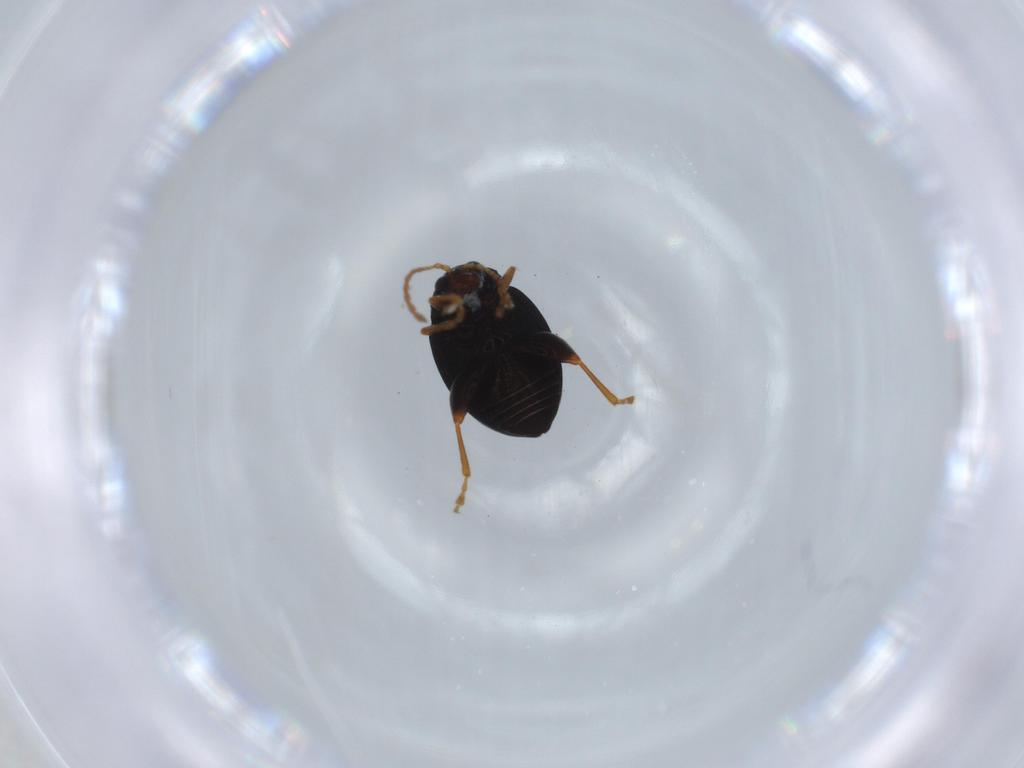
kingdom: Animalia
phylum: Arthropoda
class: Insecta
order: Coleoptera
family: Chrysomelidae
